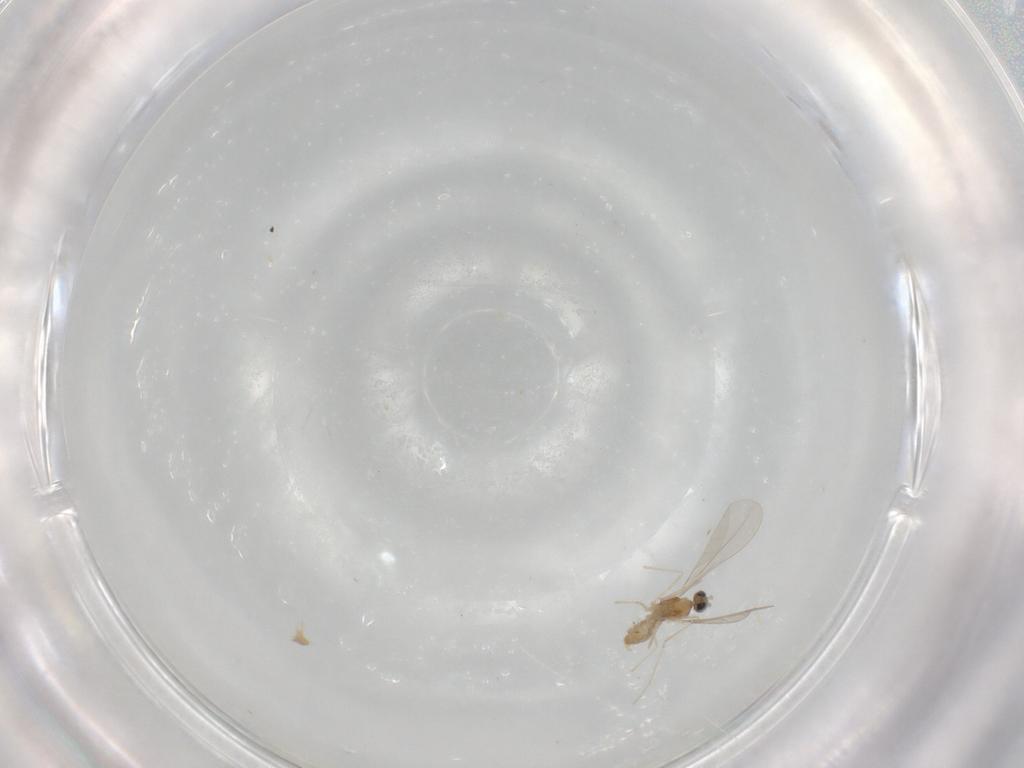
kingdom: Animalia
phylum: Arthropoda
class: Insecta
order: Diptera
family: Cecidomyiidae
